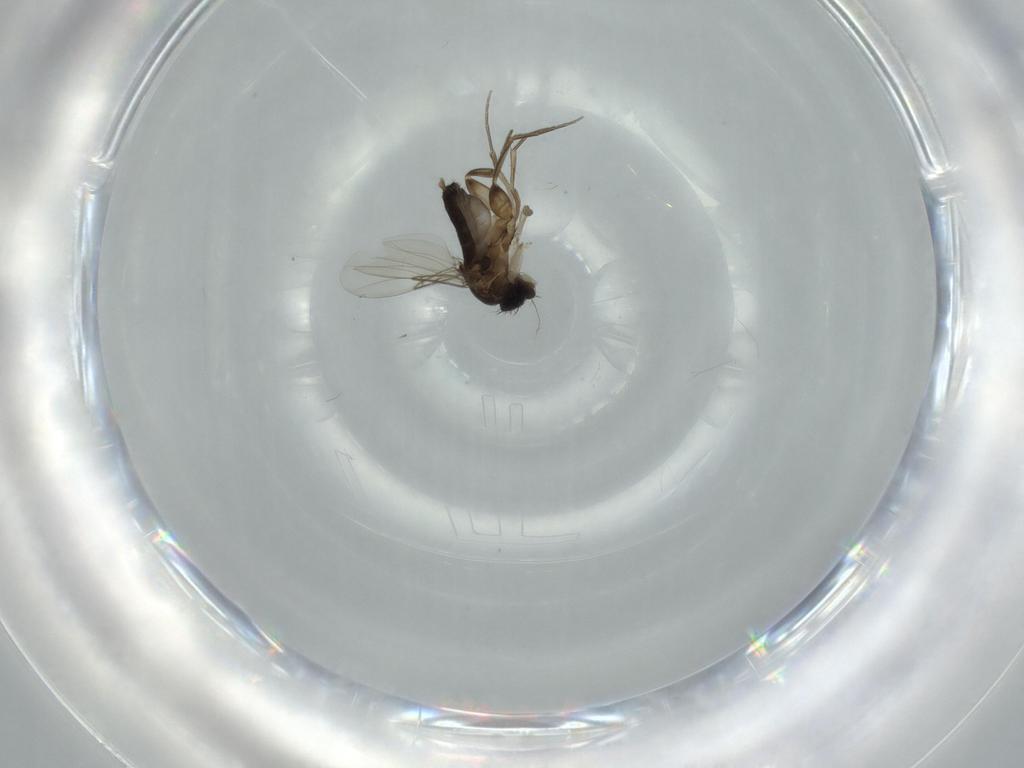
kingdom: Animalia
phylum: Arthropoda
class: Insecta
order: Diptera
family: Phoridae
